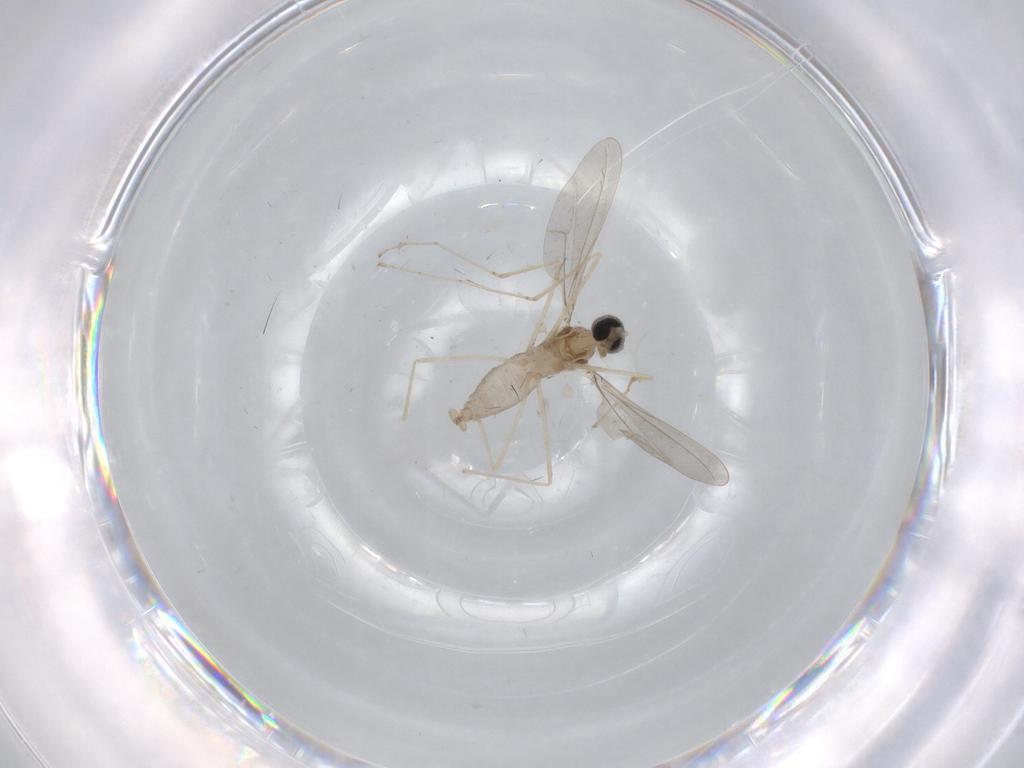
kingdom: Animalia
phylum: Arthropoda
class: Insecta
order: Diptera
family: Cecidomyiidae
